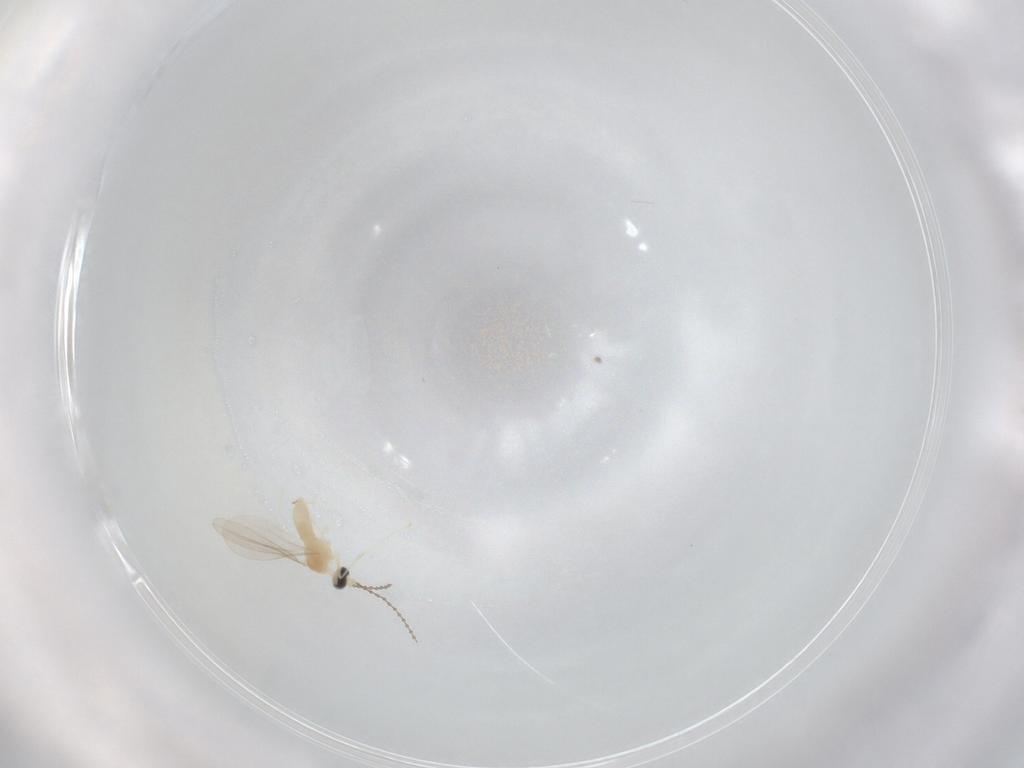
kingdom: Animalia
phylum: Arthropoda
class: Insecta
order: Diptera
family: Phoridae
